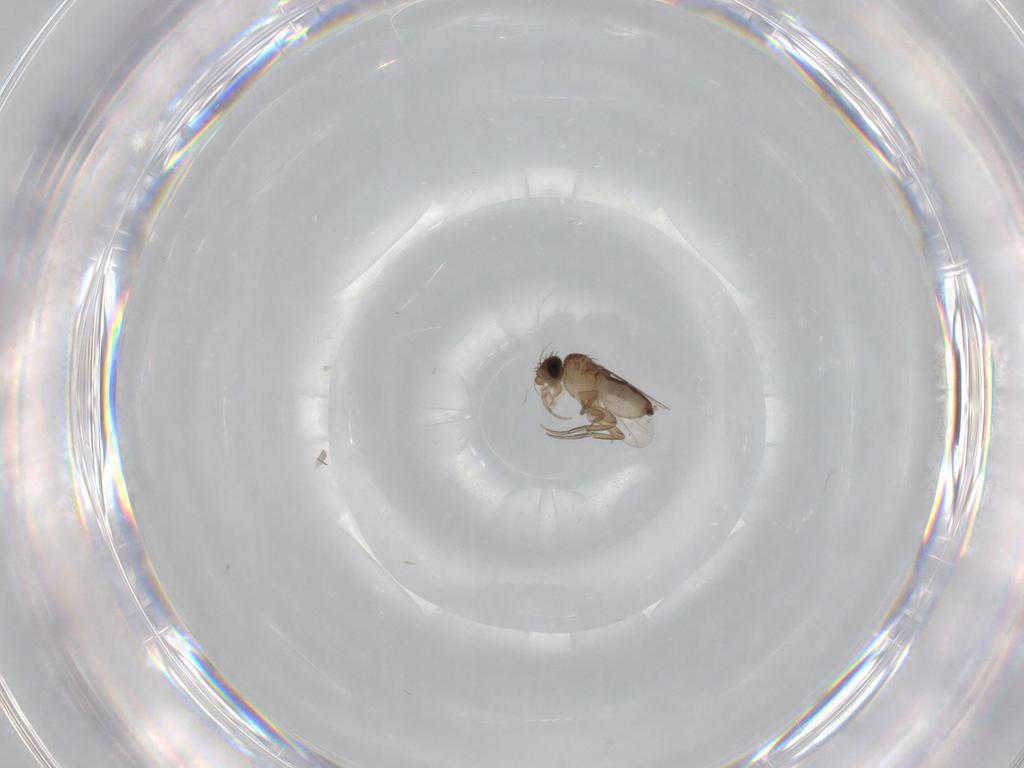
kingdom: Animalia
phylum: Arthropoda
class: Insecta
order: Diptera
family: Phoridae
